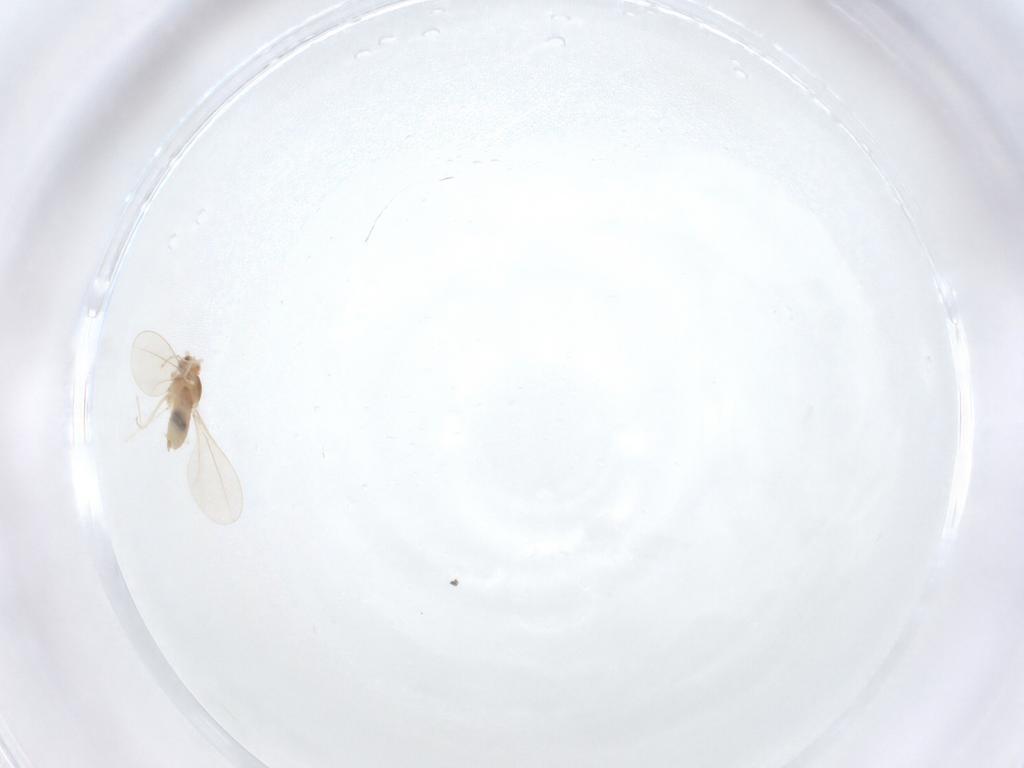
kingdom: Animalia
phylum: Arthropoda
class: Insecta
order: Diptera
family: Cecidomyiidae
